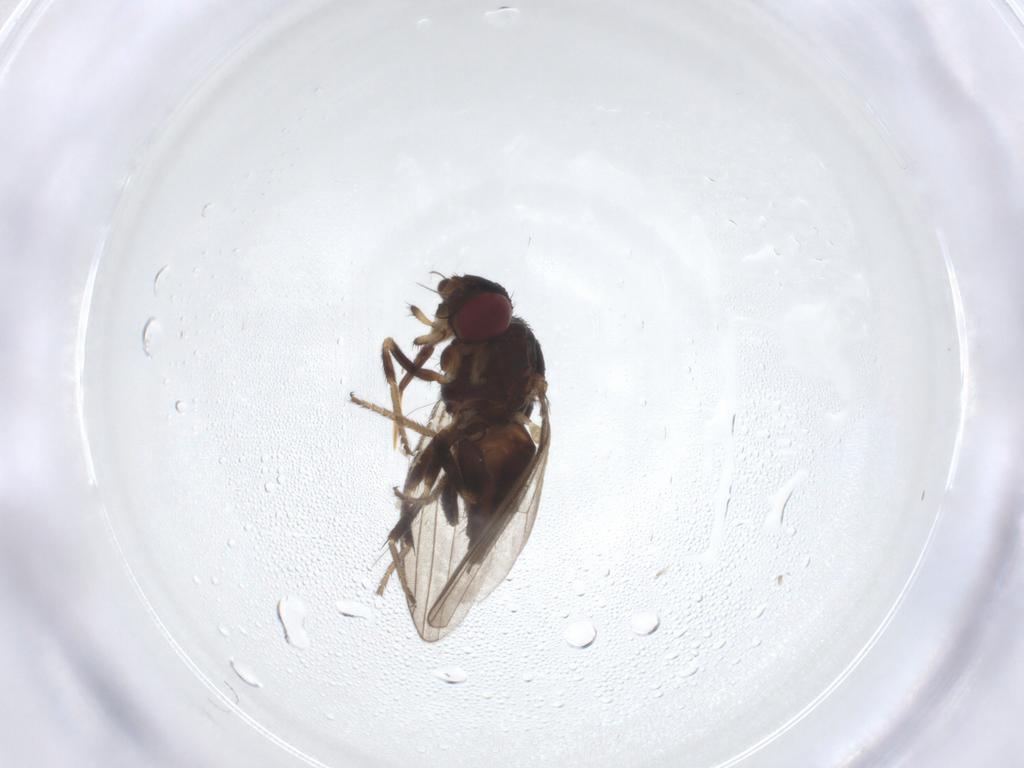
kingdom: Animalia
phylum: Arthropoda
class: Insecta
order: Diptera
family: Milichiidae
